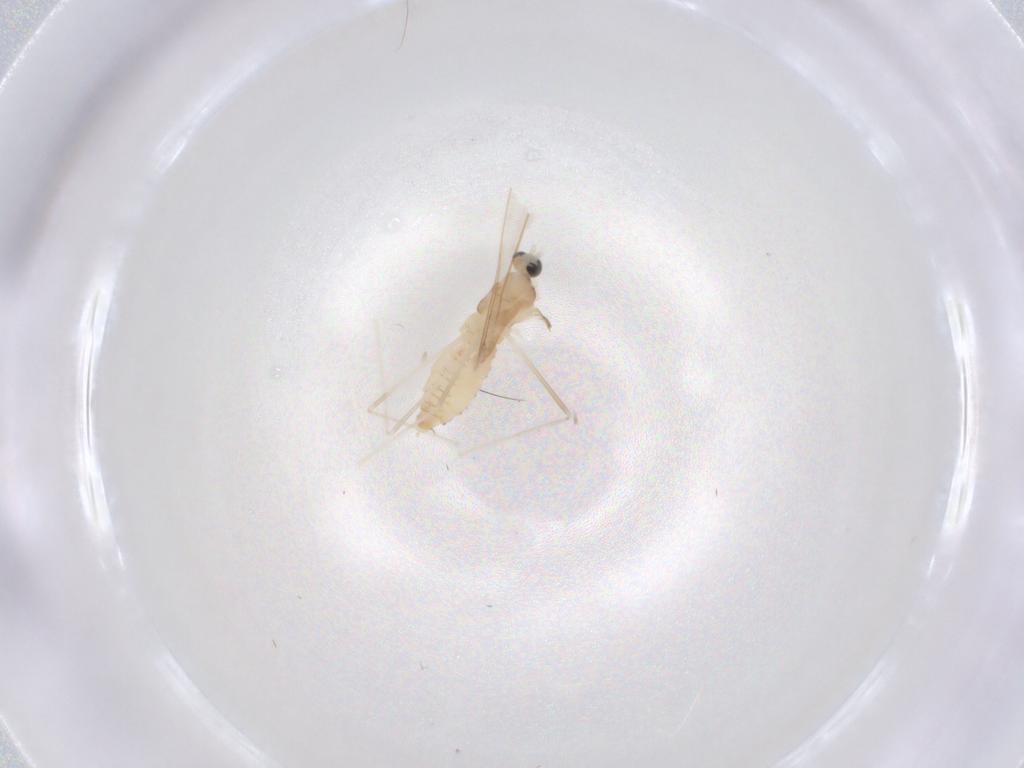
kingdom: Animalia
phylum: Arthropoda
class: Insecta
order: Diptera
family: Cecidomyiidae
